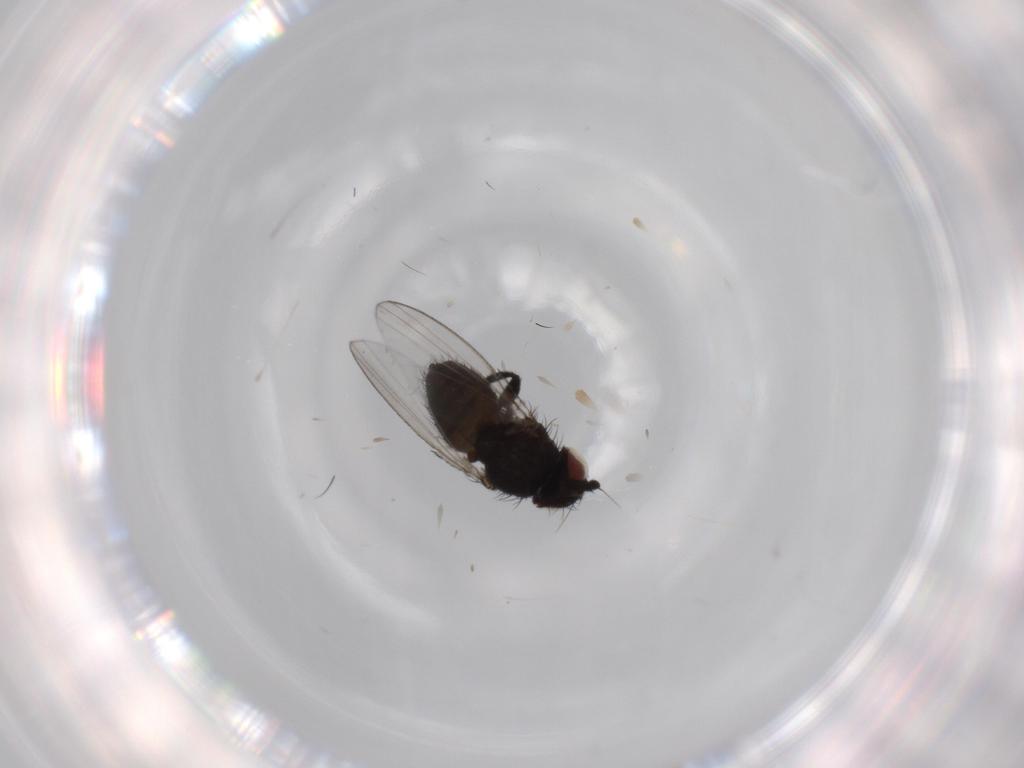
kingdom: Animalia
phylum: Arthropoda
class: Insecta
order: Diptera
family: Milichiidae
